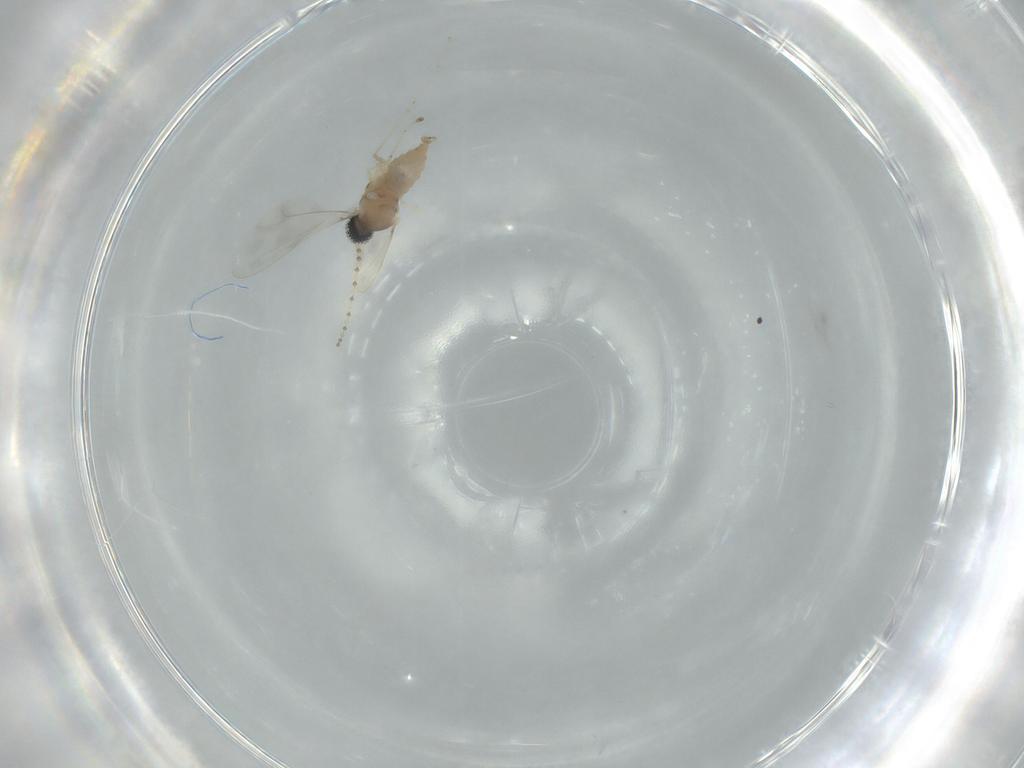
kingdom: Animalia
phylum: Arthropoda
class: Insecta
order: Diptera
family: Cecidomyiidae
